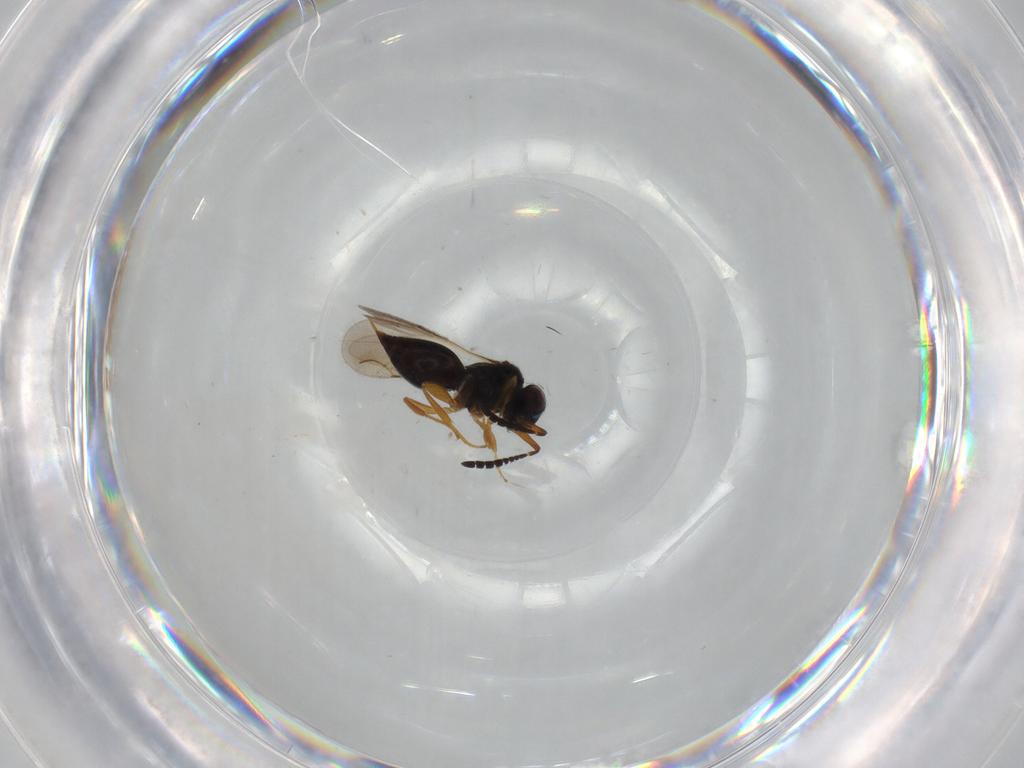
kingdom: Animalia
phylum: Arthropoda
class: Insecta
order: Hymenoptera
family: Scelionidae
